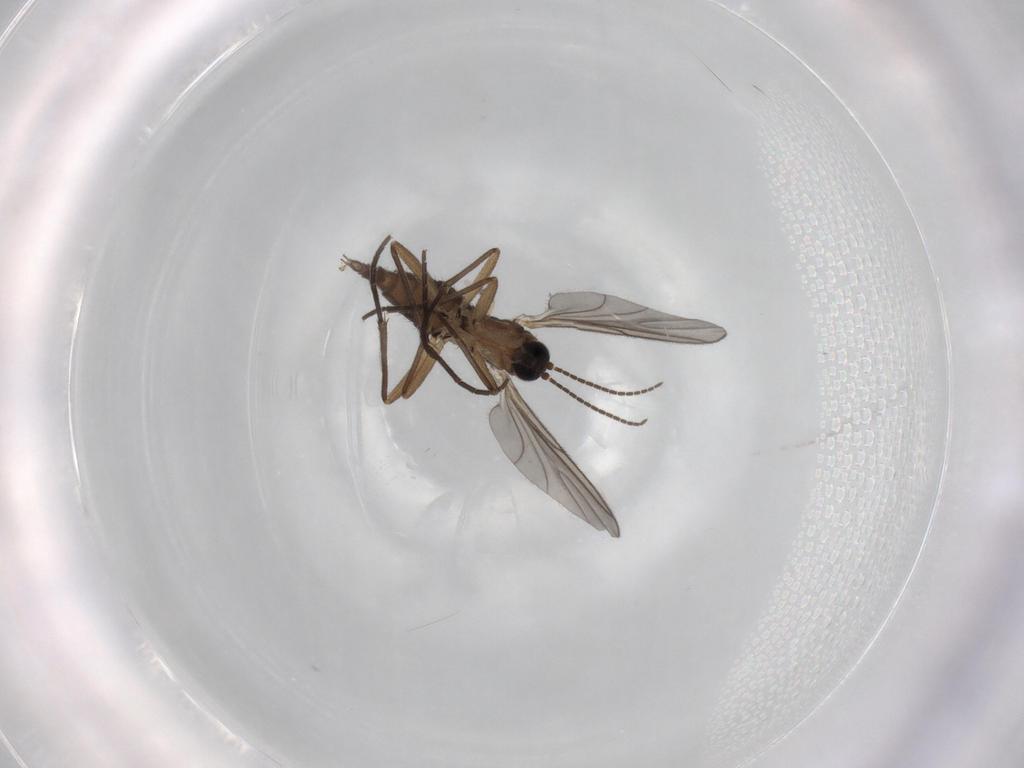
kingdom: Animalia
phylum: Arthropoda
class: Insecta
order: Diptera
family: Sciaridae
